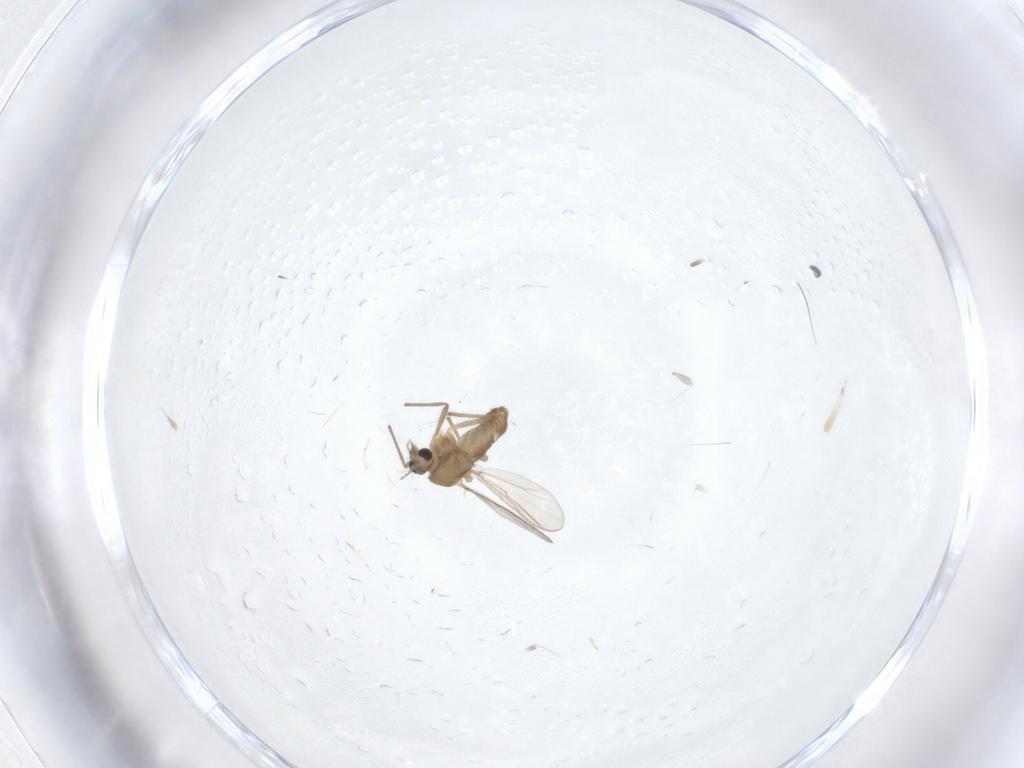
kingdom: Animalia
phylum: Arthropoda
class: Insecta
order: Diptera
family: Chironomidae
